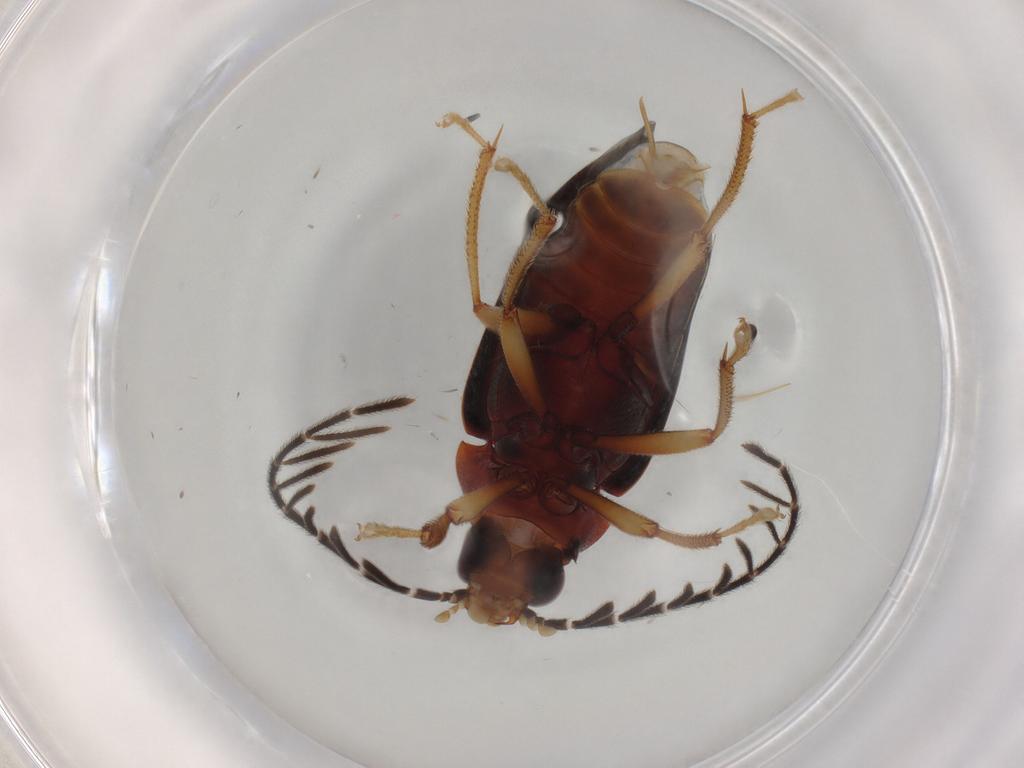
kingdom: Animalia
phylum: Arthropoda
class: Insecta
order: Coleoptera
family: Ptilodactylidae
